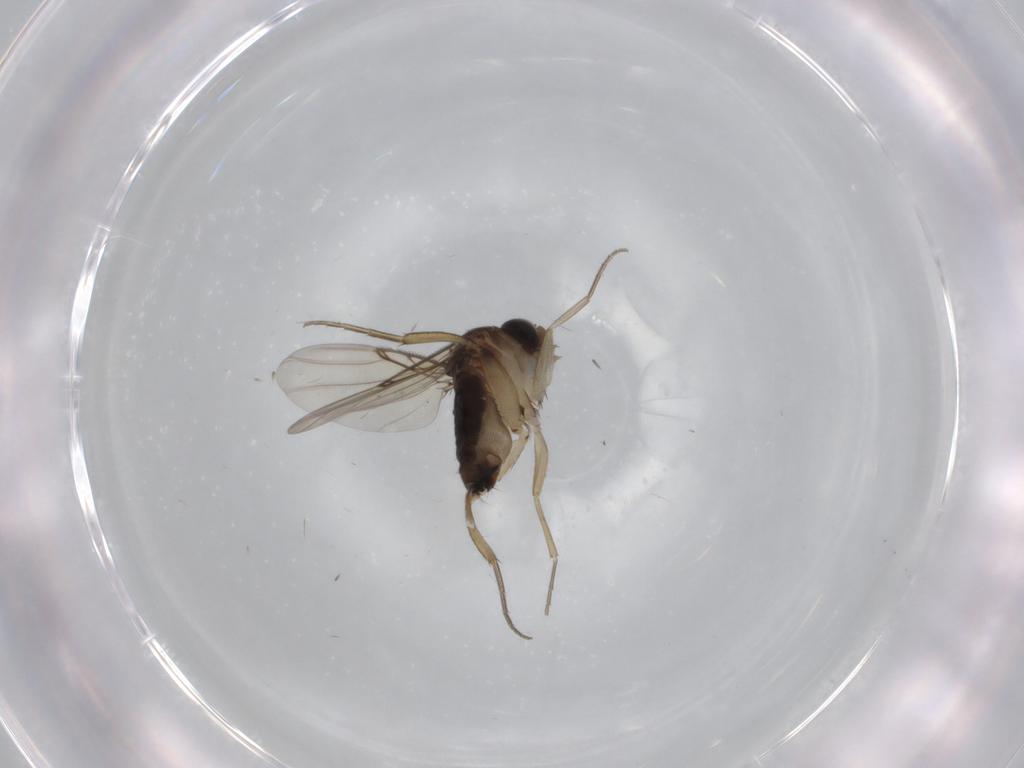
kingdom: Animalia
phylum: Arthropoda
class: Insecta
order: Diptera
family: Phoridae
